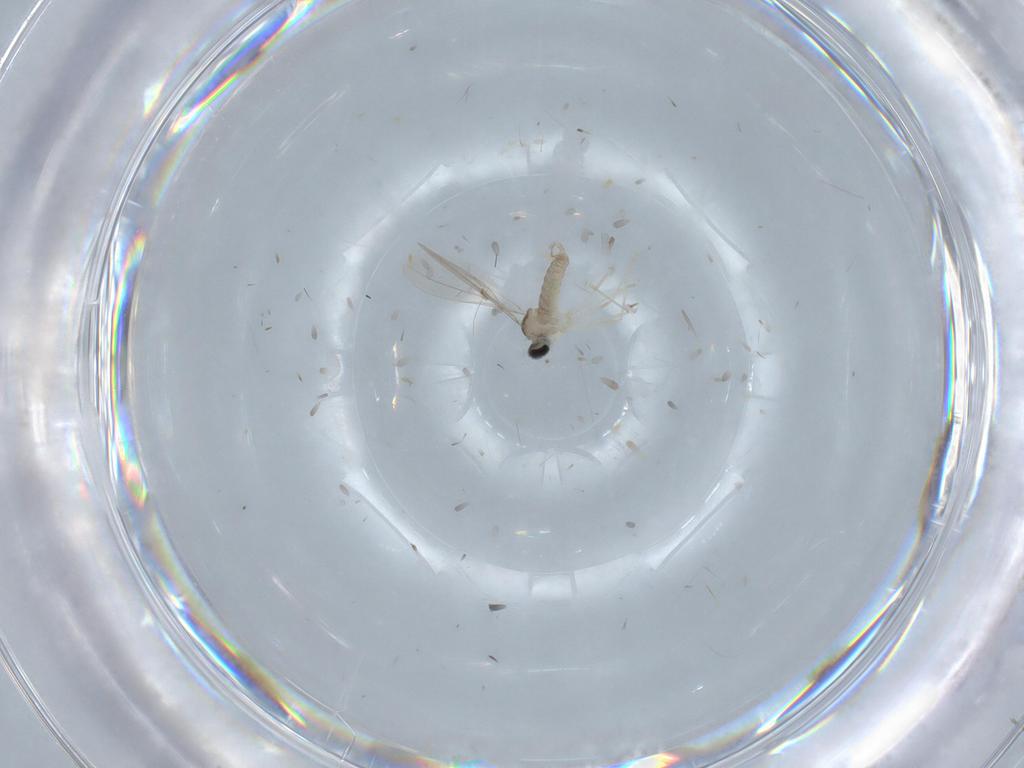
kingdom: Animalia
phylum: Arthropoda
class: Insecta
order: Diptera
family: Cecidomyiidae
